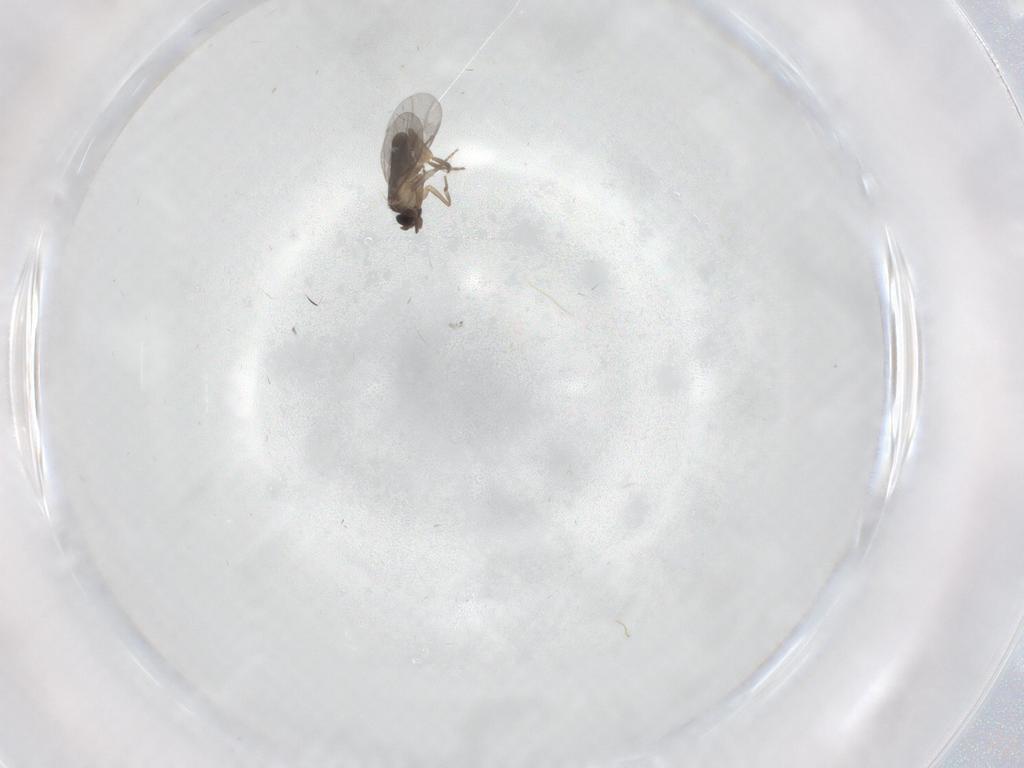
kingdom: Animalia
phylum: Arthropoda
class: Insecta
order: Diptera
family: Limoniidae
